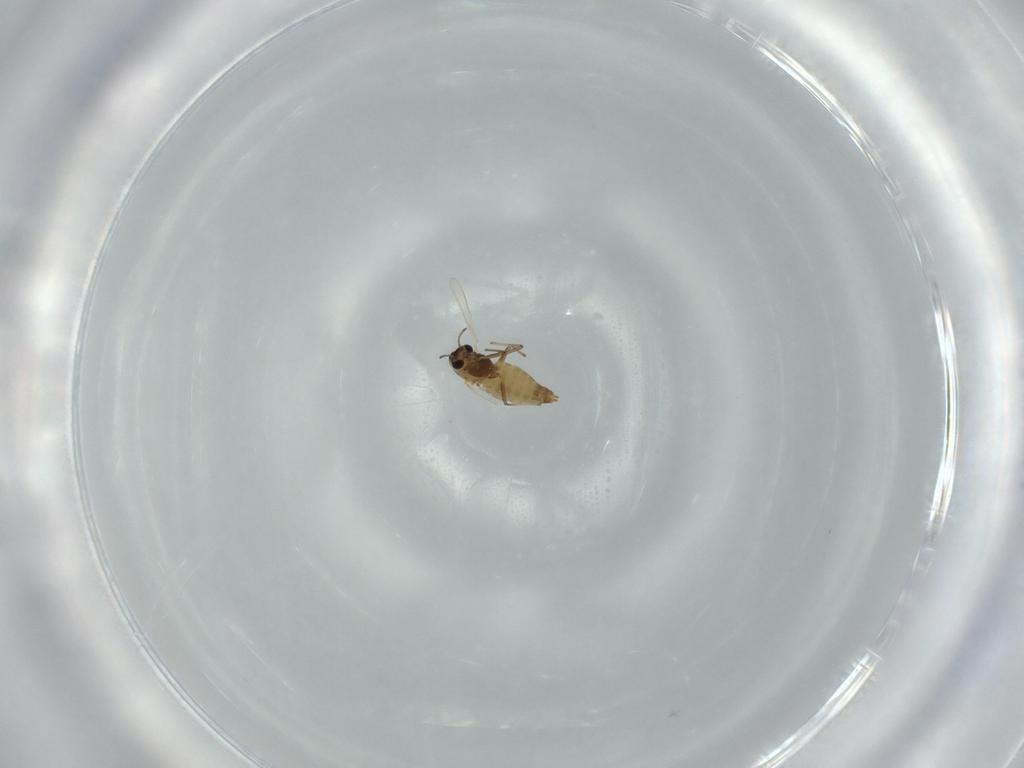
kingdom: Animalia
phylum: Arthropoda
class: Insecta
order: Diptera
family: Chironomidae
